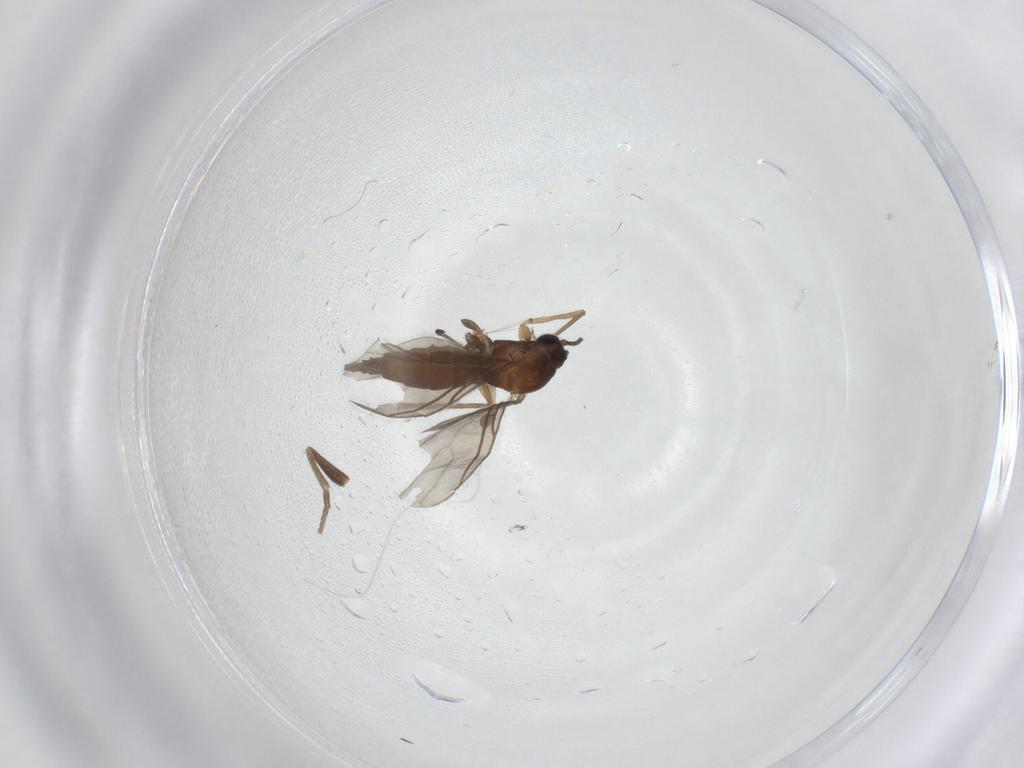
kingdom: Animalia
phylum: Arthropoda
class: Insecta
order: Diptera
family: Sciaridae
